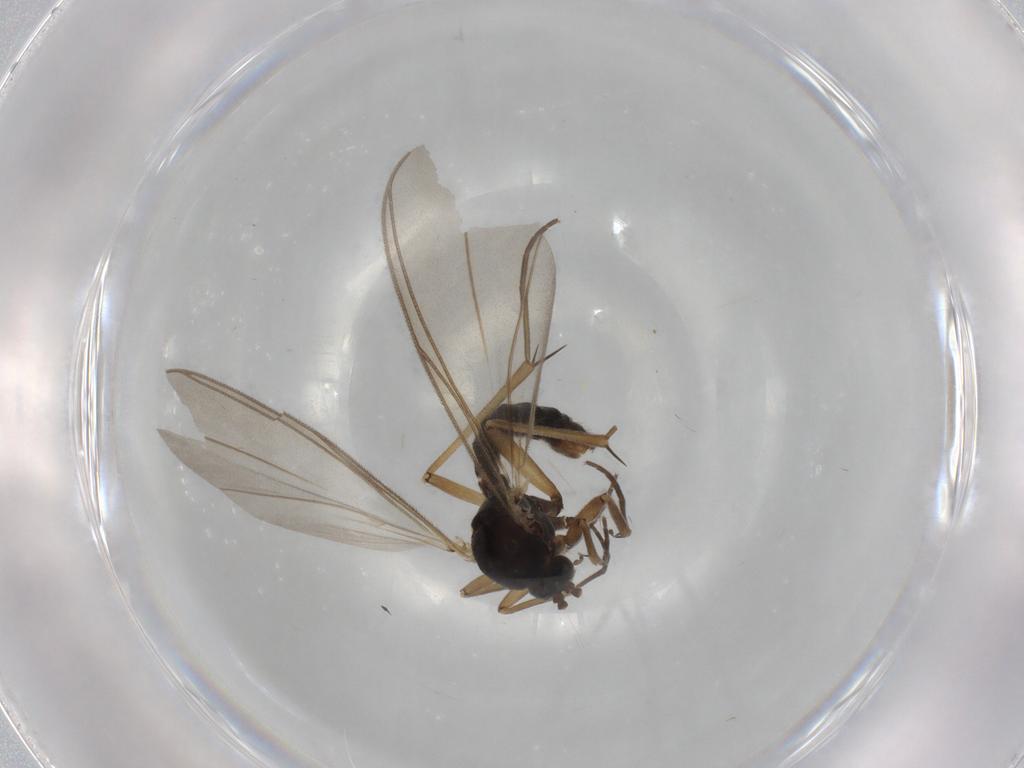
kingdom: Animalia
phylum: Arthropoda
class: Insecta
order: Diptera
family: Mycetophilidae
